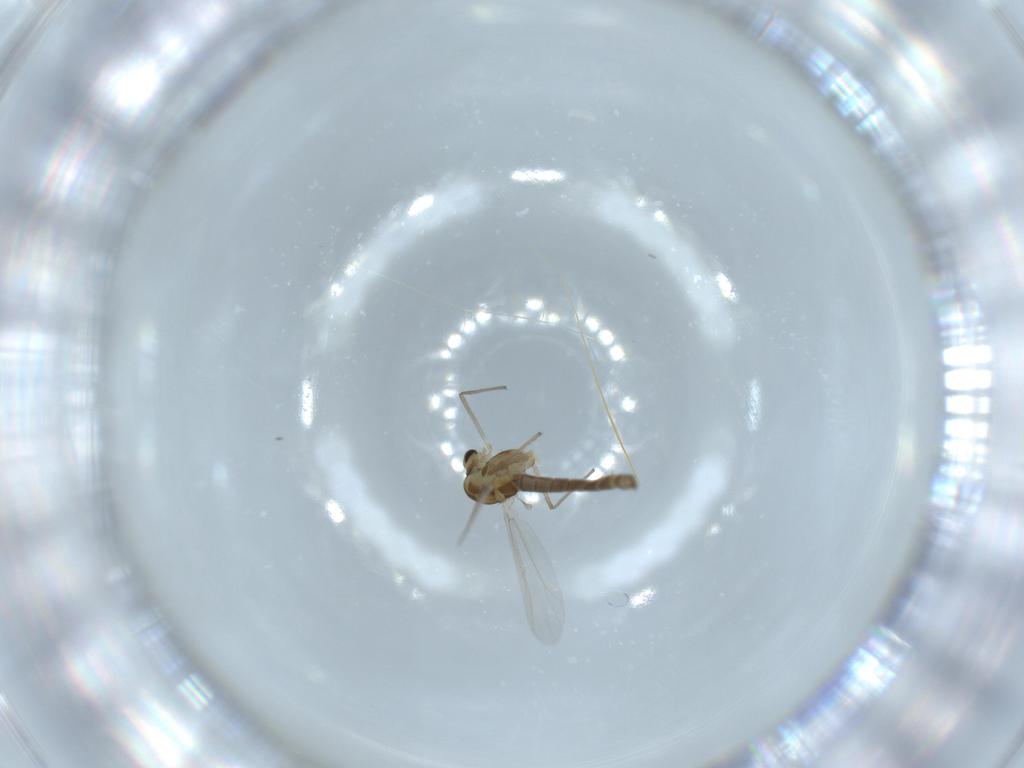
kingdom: Animalia
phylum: Arthropoda
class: Insecta
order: Diptera
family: Chironomidae
